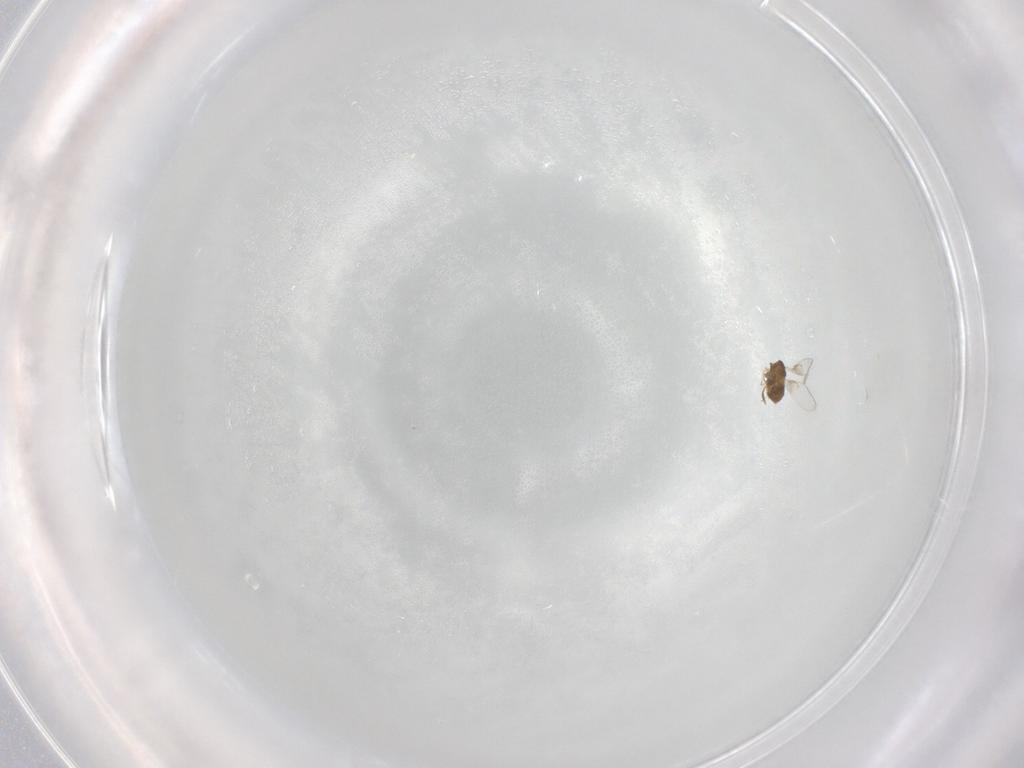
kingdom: Animalia
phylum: Arthropoda
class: Insecta
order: Hymenoptera
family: Trichogrammatidae
